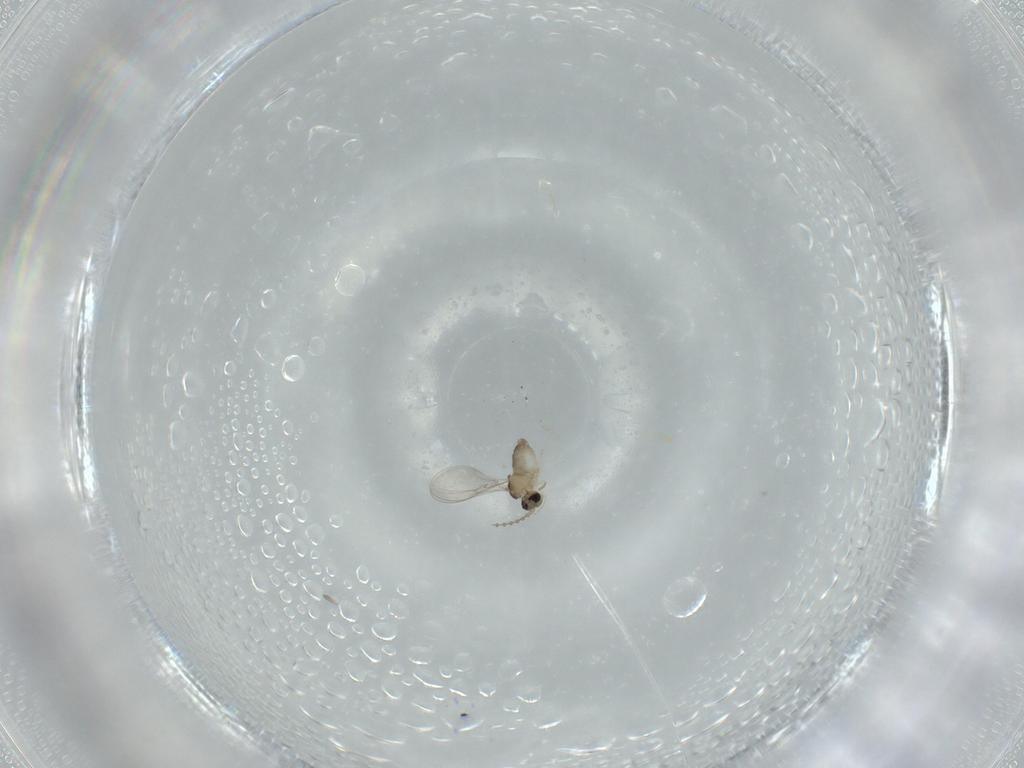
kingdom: Animalia
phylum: Arthropoda
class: Insecta
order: Diptera
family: Cecidomyiidae
